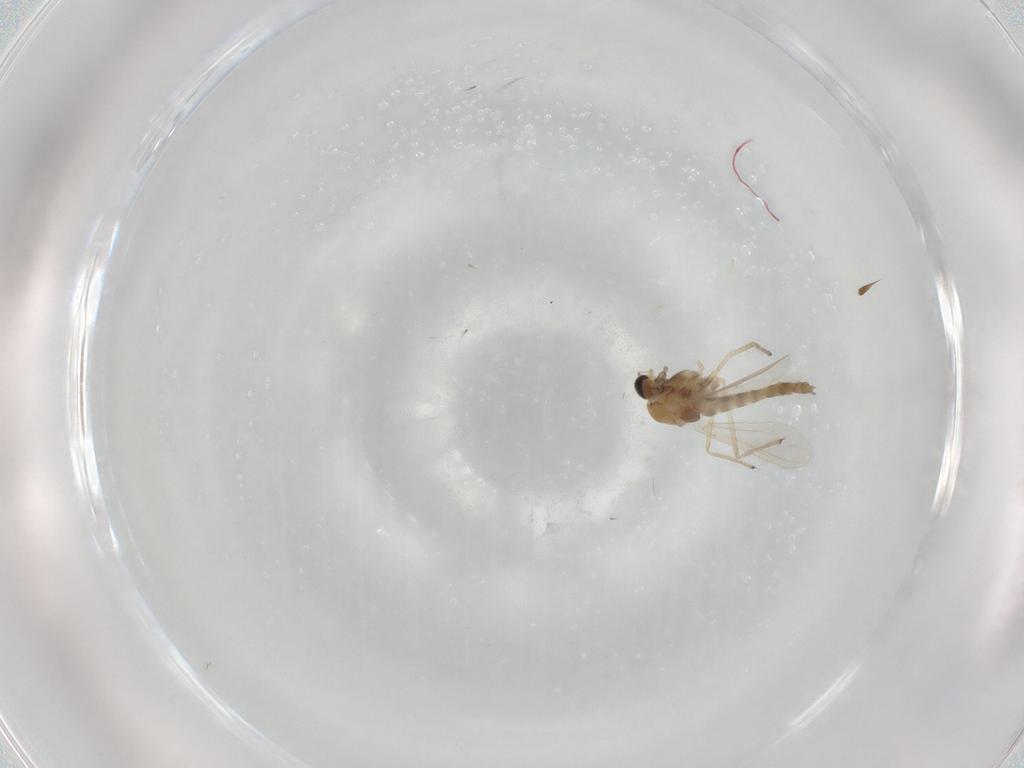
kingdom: Animalia
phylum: Arthropoda
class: Insecta
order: Diptera
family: Chironomidae
